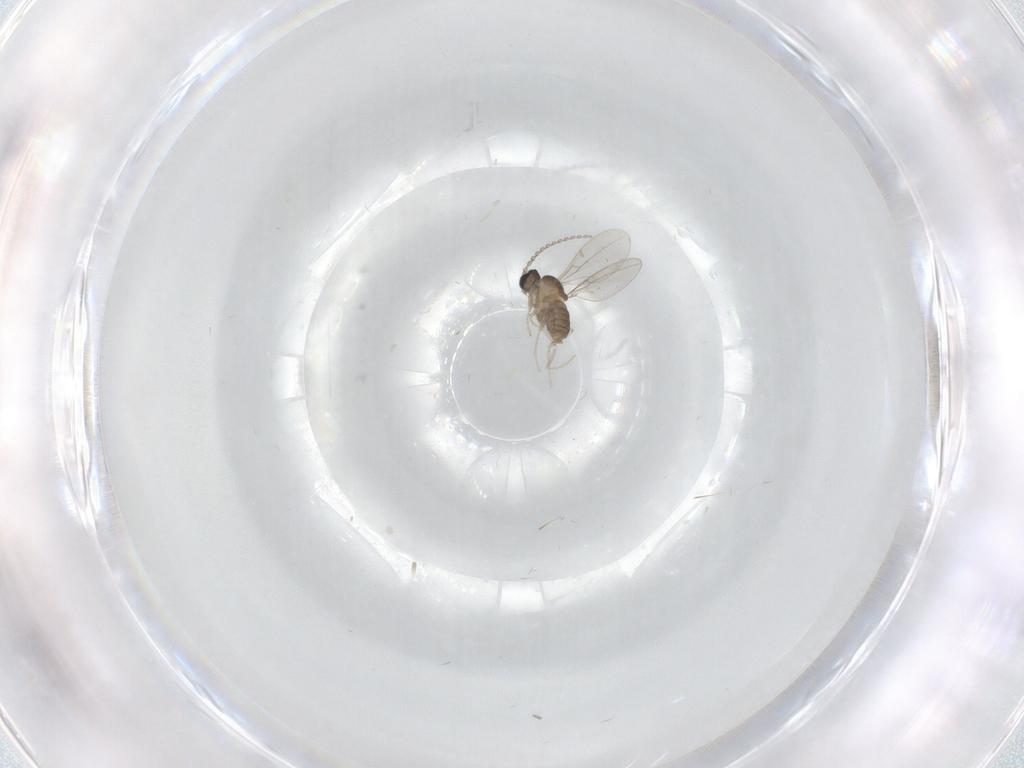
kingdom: Animalia
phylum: Arthropoda
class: Insecta
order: Diptera
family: Cecidomyiidae
